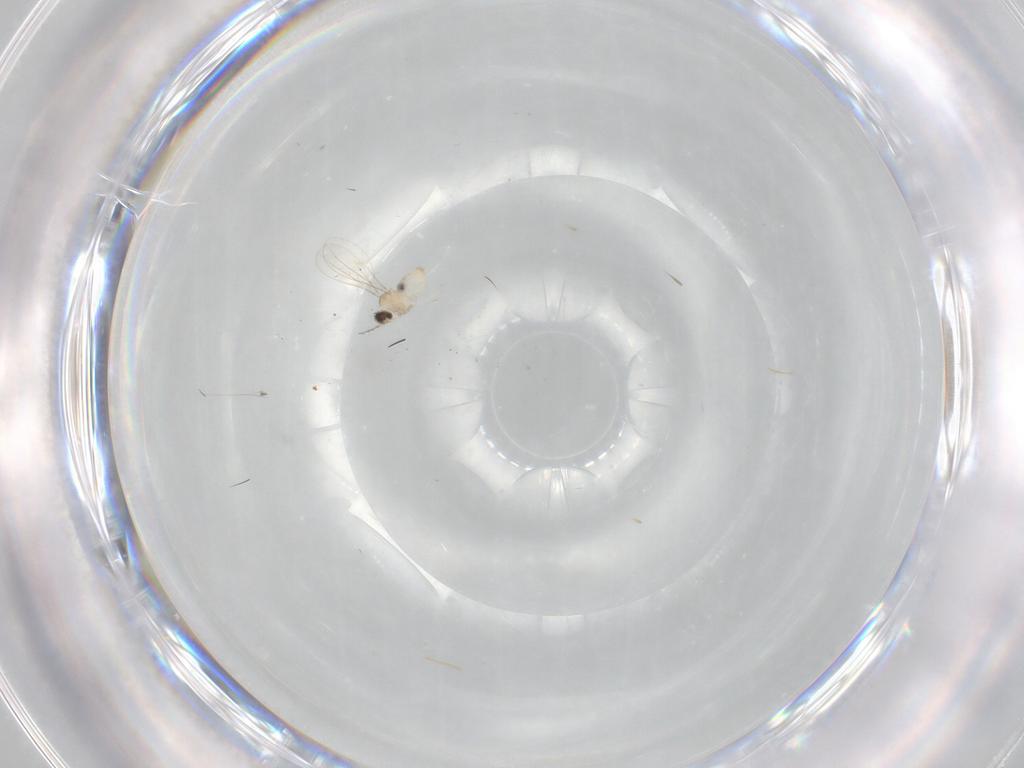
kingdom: Animalia
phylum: Arthropoda
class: Insecta
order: Diptera
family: Cecidomyiidae
